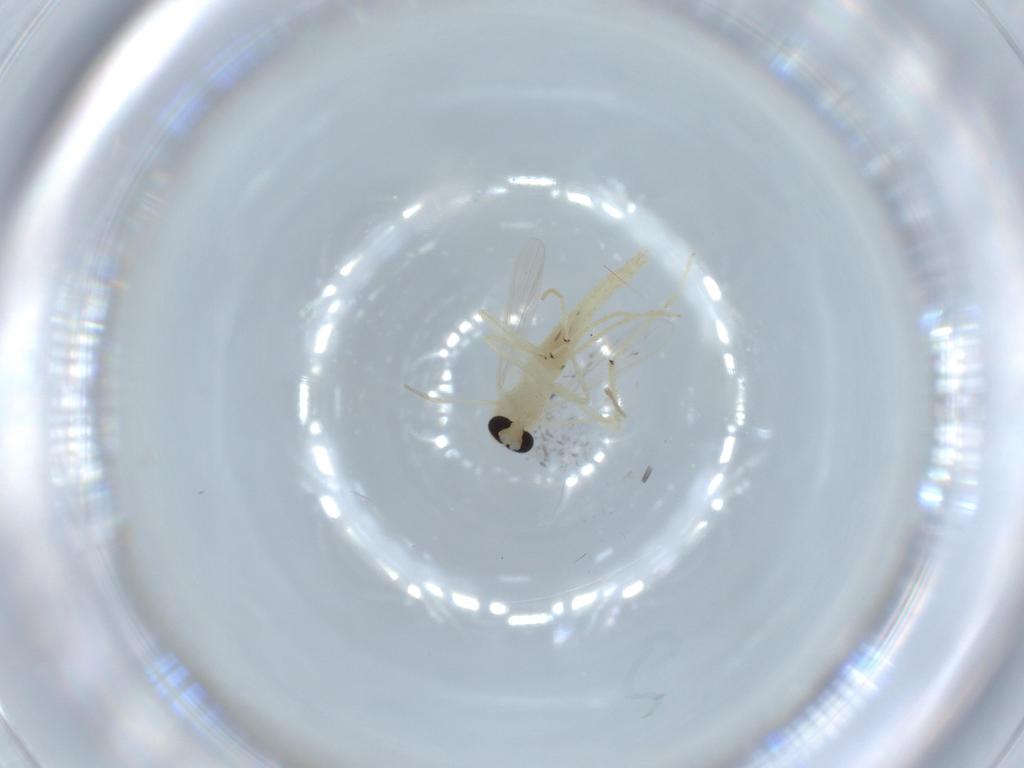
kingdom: Animalia
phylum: Arthropoda
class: Insecta
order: Diptera
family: Chironomidae
